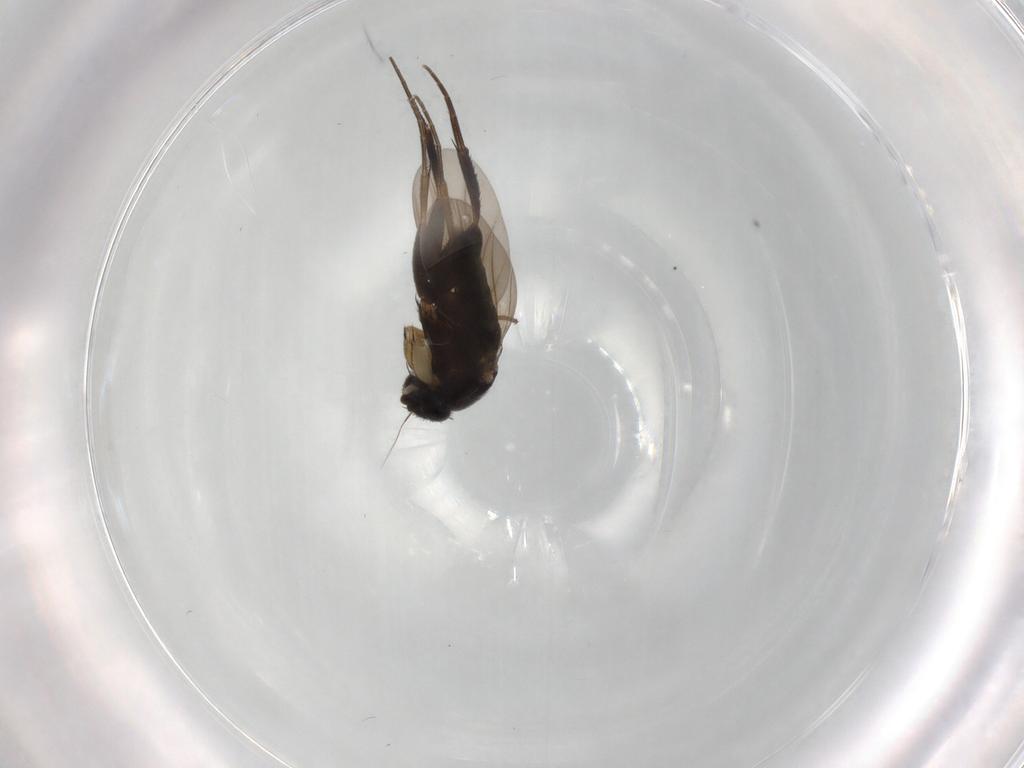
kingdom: Animalia
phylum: Arthropoda
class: Insecta
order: Diptera
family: Phoridae
